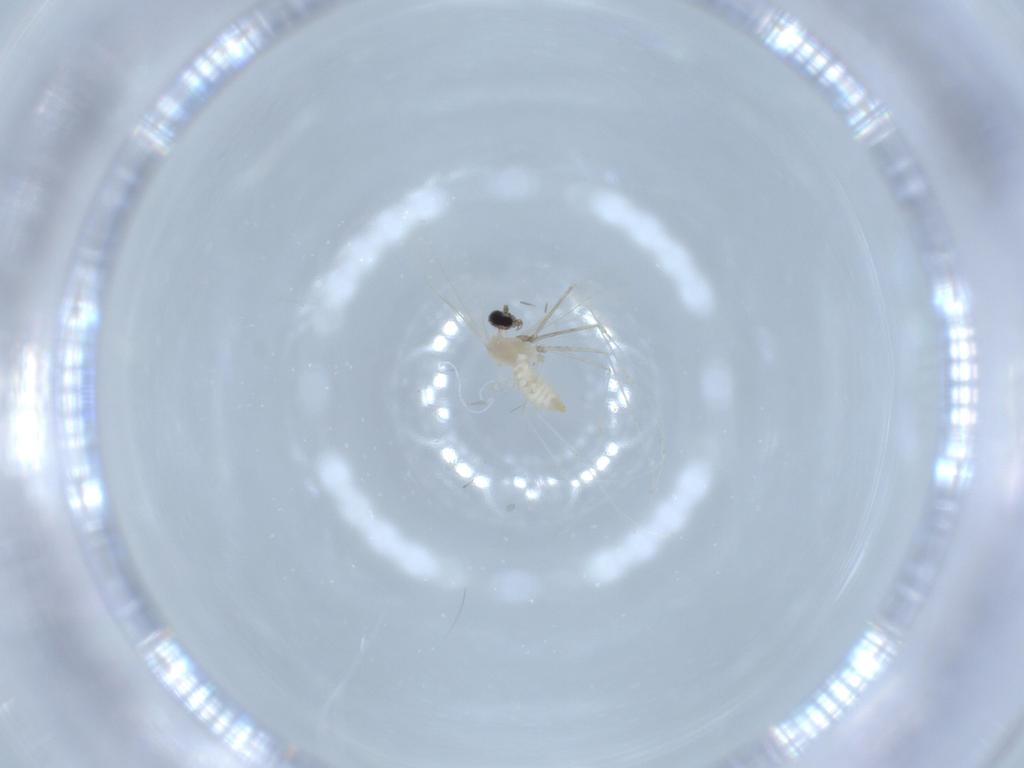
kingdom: Animalia
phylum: Arthropoda
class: Insecta
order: Diptera
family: Cecidomyiidae
